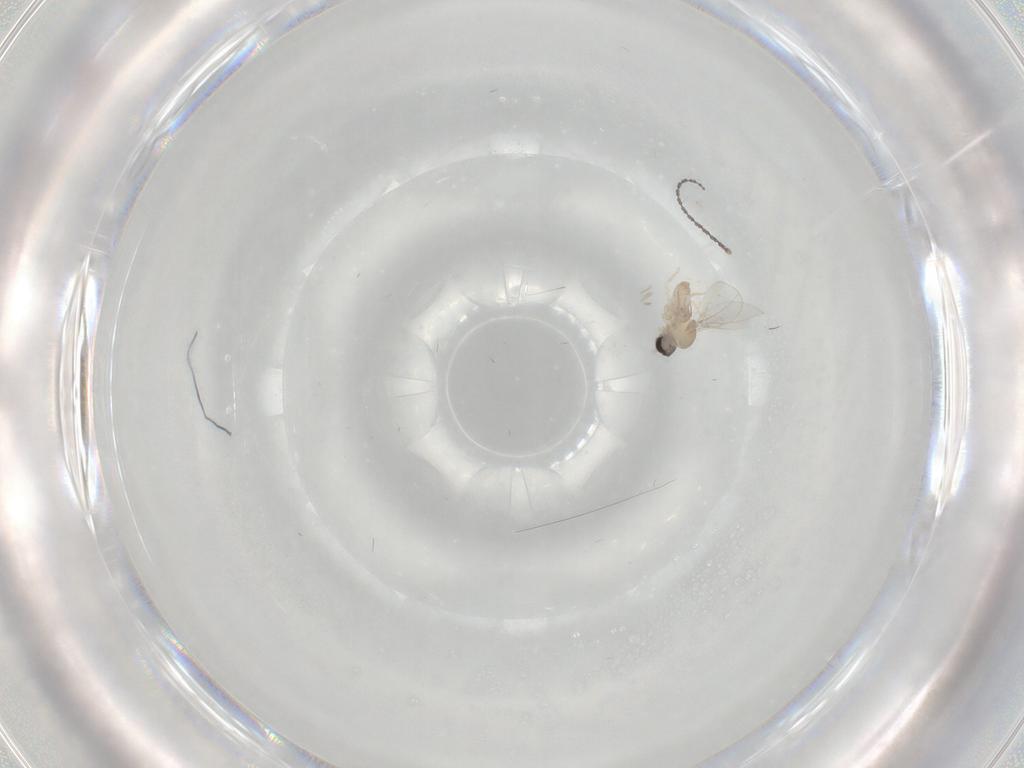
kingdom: Animalia
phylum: Arthropoda
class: Insecta
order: Diptera
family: Cecidomyiidae
